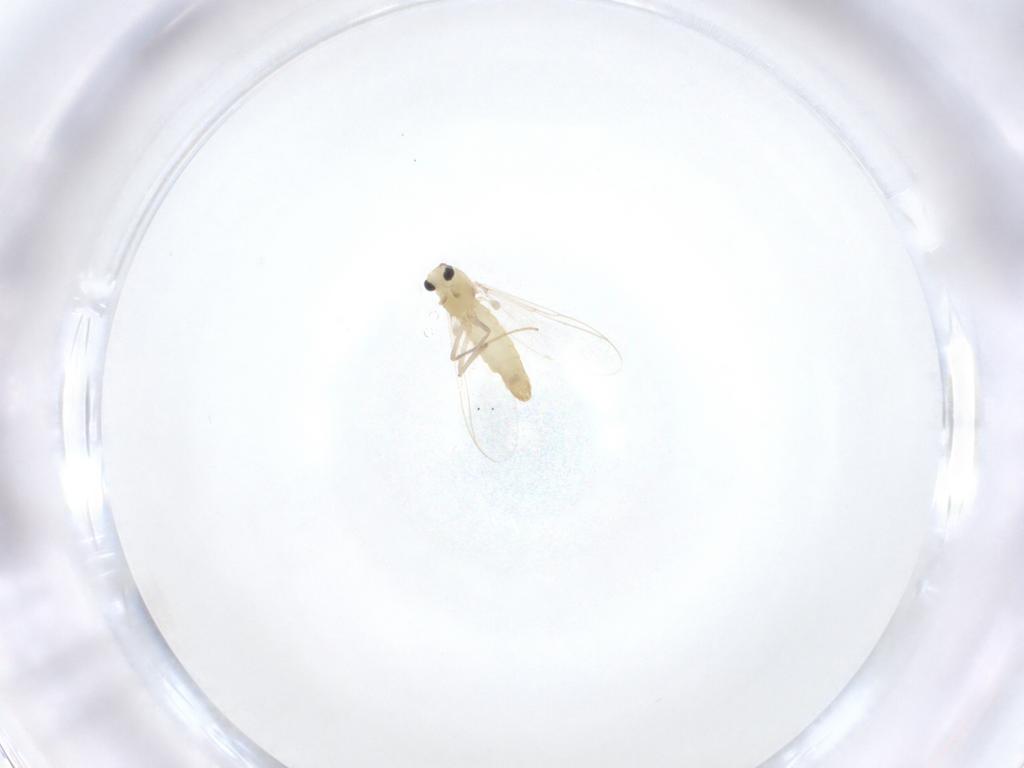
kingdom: Animalia
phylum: Arthropoda
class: Insecta
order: Diptera
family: Chironomidae
